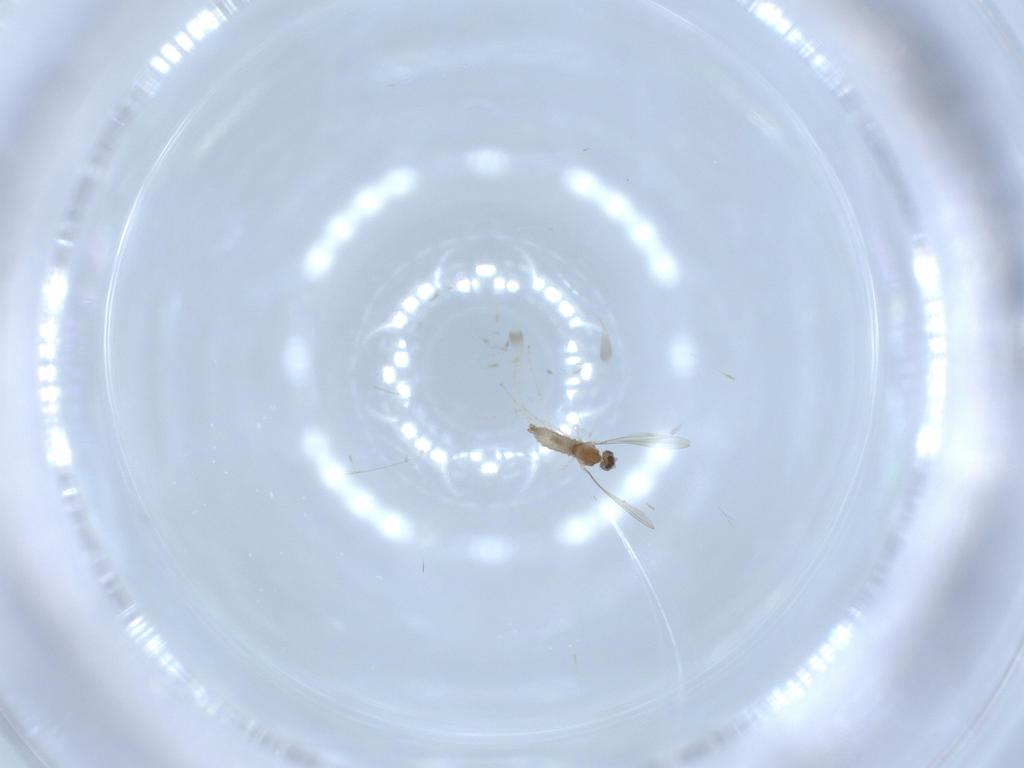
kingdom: Animalia
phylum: Arthropoda
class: Insecta
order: Diptera
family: Cecidomyiidae
